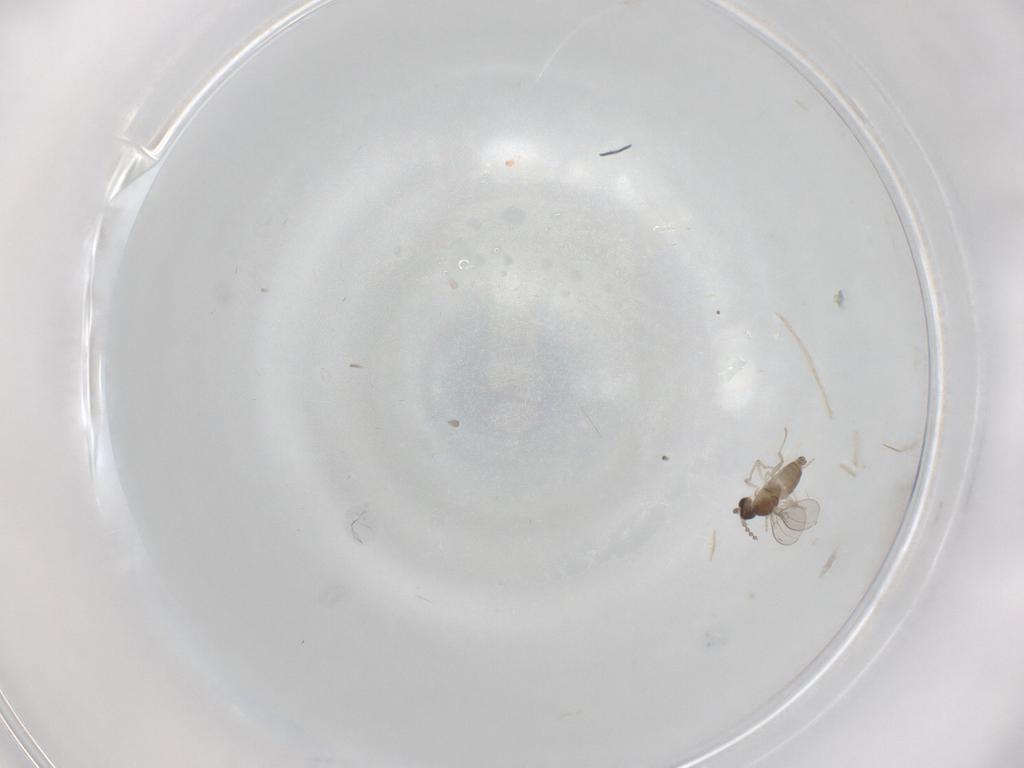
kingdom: Animalia
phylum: Arthropoda
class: Insecta
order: Diptera
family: Cecidomyiidae
